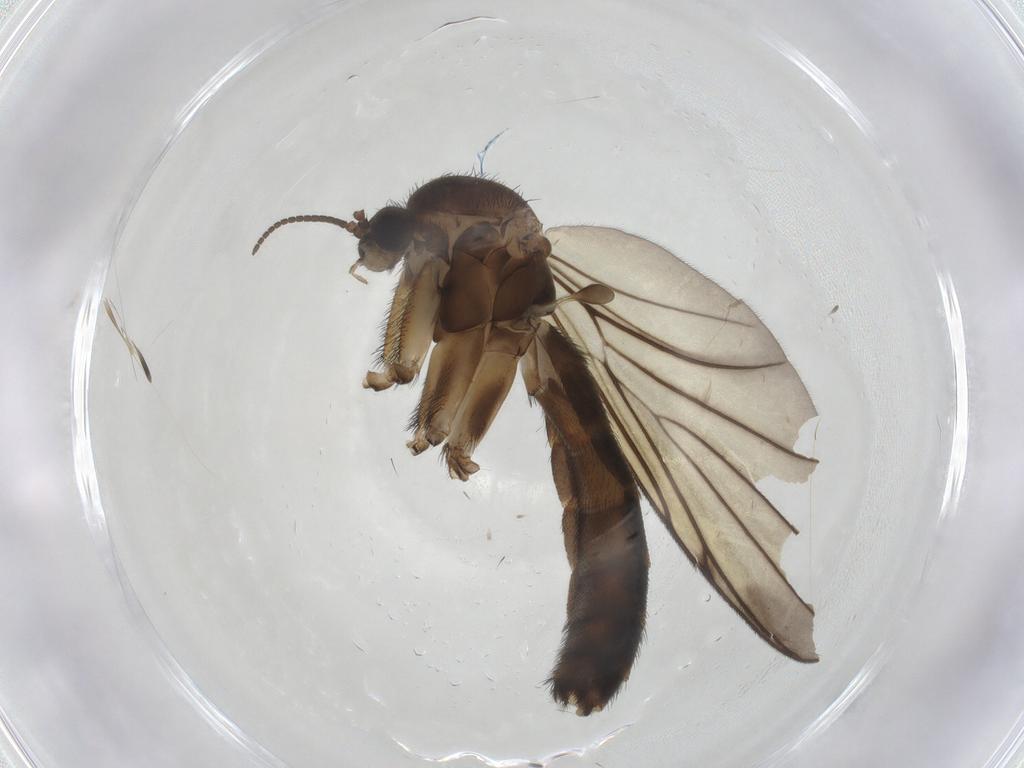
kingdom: Animalia
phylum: Arthropoda
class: Insecta
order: Diptera
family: Keroplatidae
